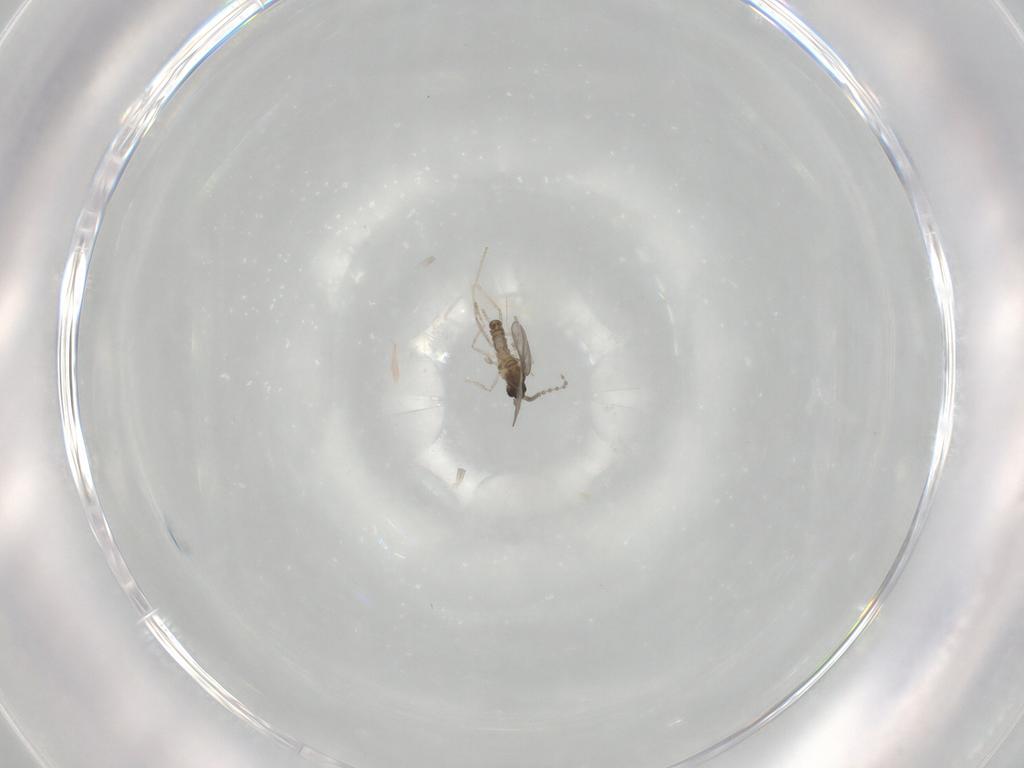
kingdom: Animalia
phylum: Arthropoda
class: Insecta
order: Diptera
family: Cecidomyiidae
